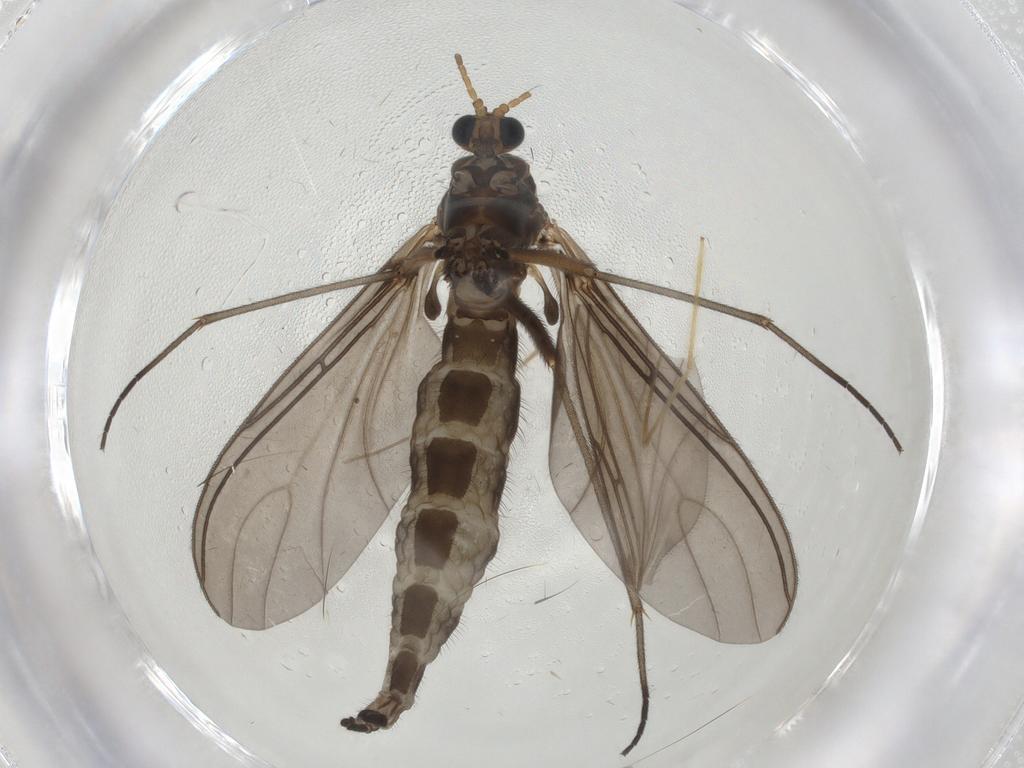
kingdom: Animalia
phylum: Arthropoda
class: Insecta
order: Diptera
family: Sciaridae
